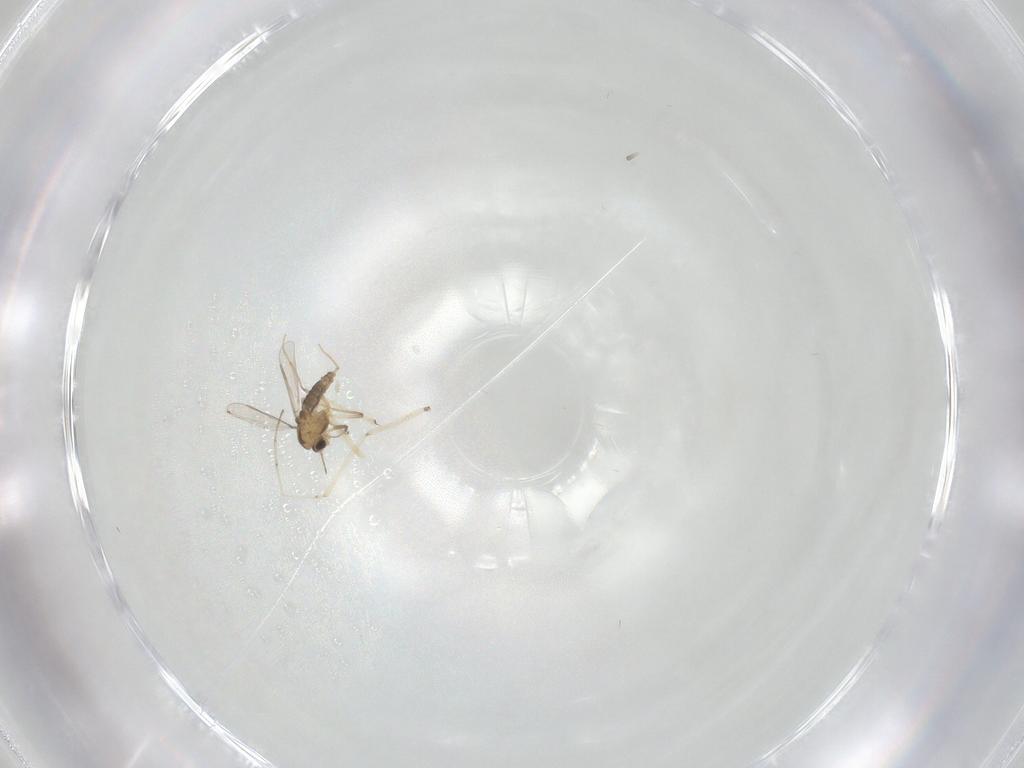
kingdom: Animalia
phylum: Arthropoda
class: Insecta
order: Diptera
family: Chironomidae
